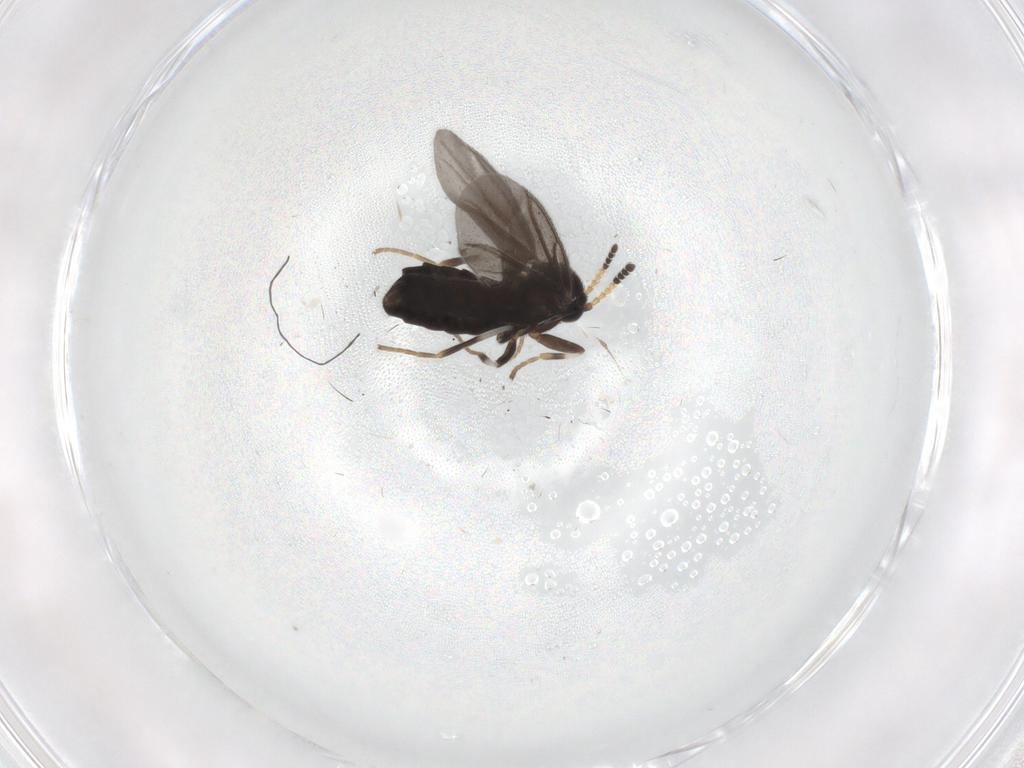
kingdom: Animalia
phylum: Arthropoda
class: Insecta
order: Diptera
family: Scatopsidae
